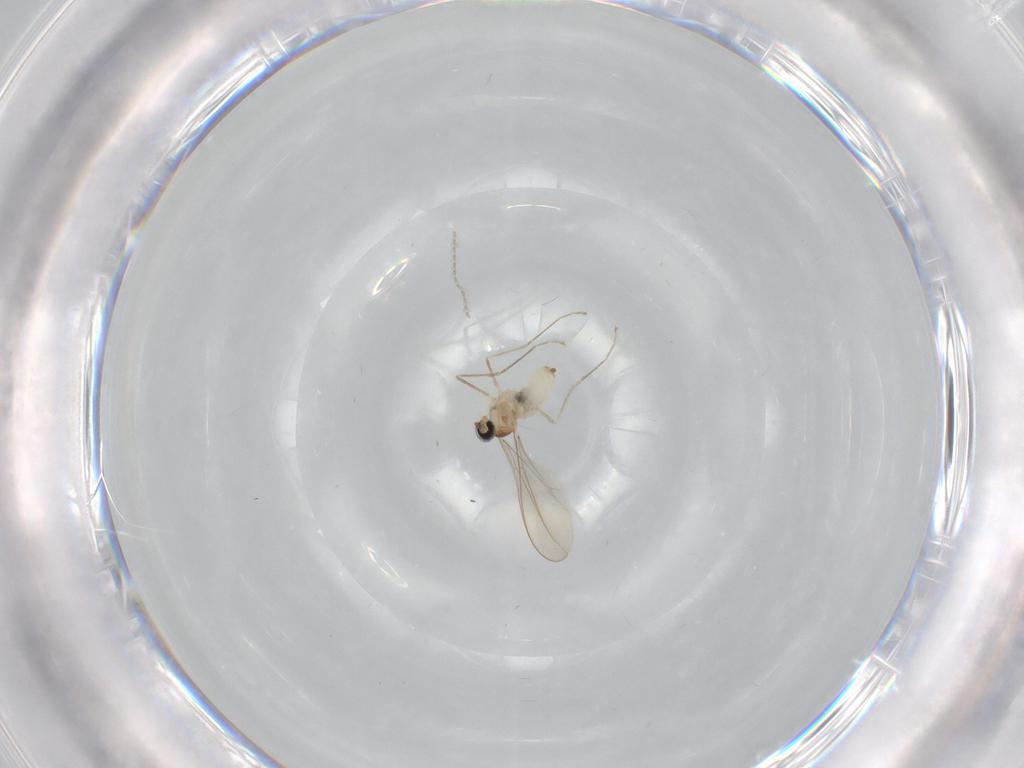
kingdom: Animalia
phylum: Arthropoda
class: Insecta
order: Diptera
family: Cecidomyiidae
